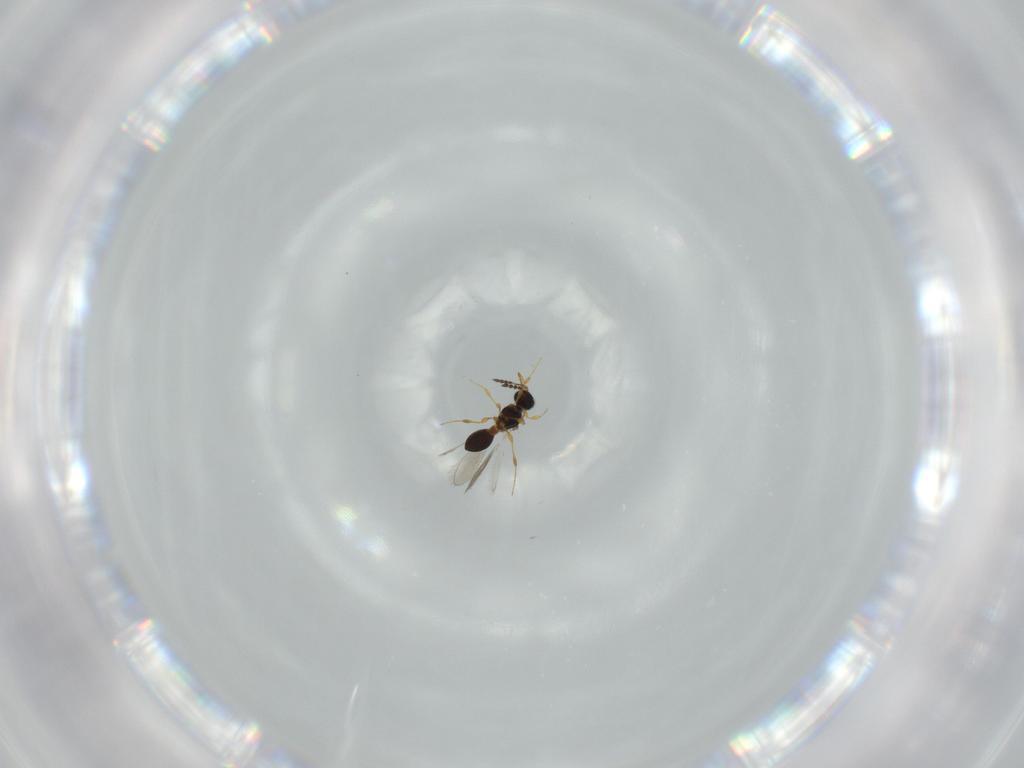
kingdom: Animalia
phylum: Arthropoda
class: Insecta
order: Hymenoptera
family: Platygastridae
